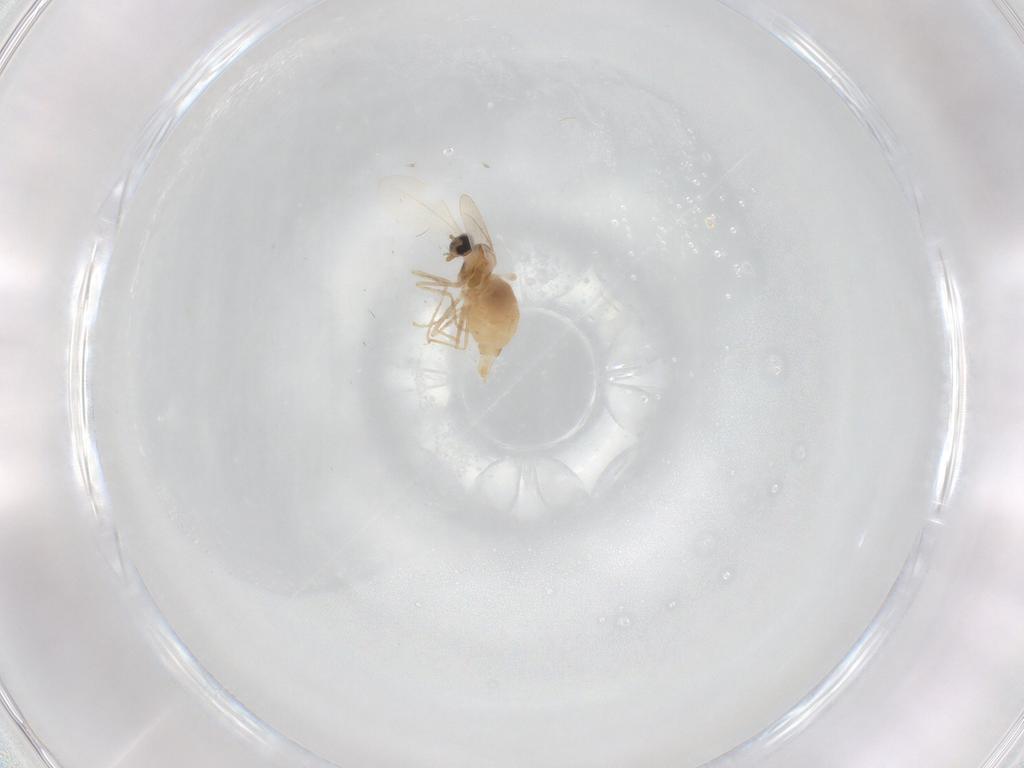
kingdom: Animalia
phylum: Arthropoda
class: Insecta
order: Diptera
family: Cecidomyiidae
